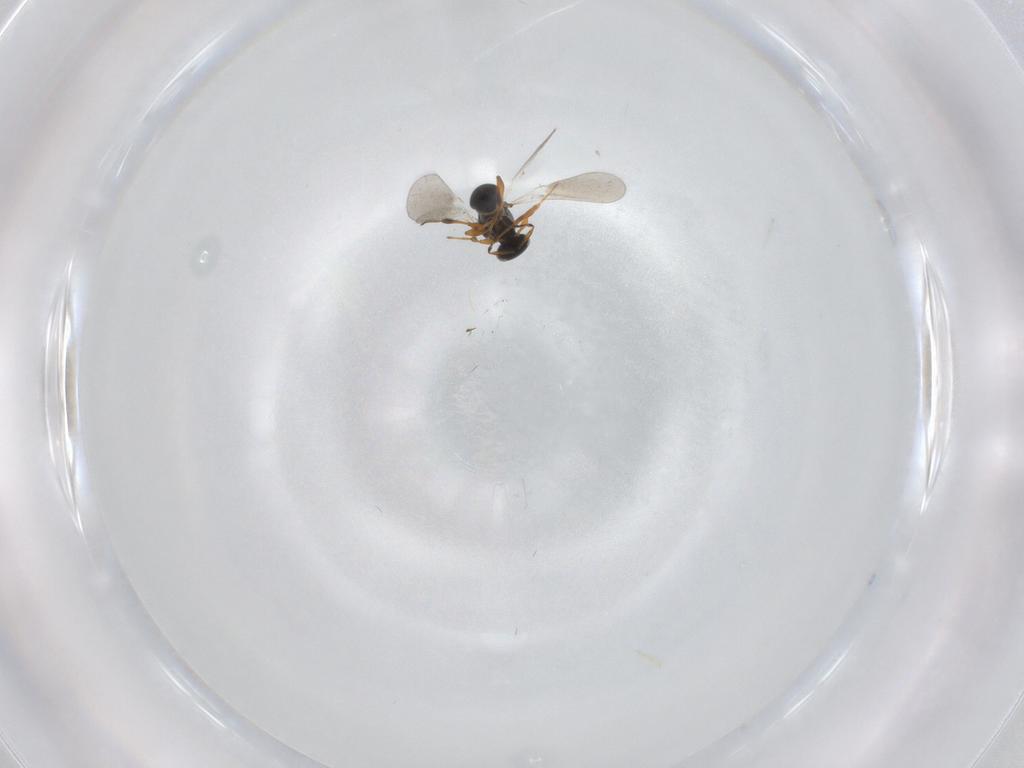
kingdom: Animalia
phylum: Arthropoda
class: Insecta
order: Hymenoptera
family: Platygastridae
